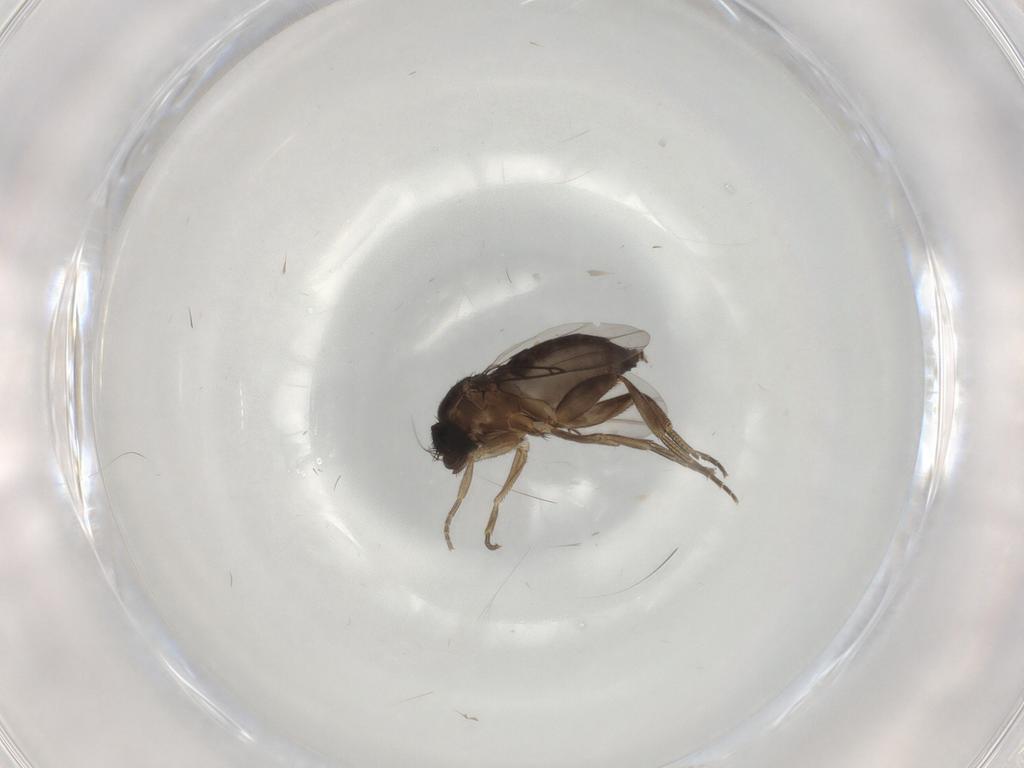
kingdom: Animalia
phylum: Arthropoda
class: Insecta
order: Diptera
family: Phoridae
